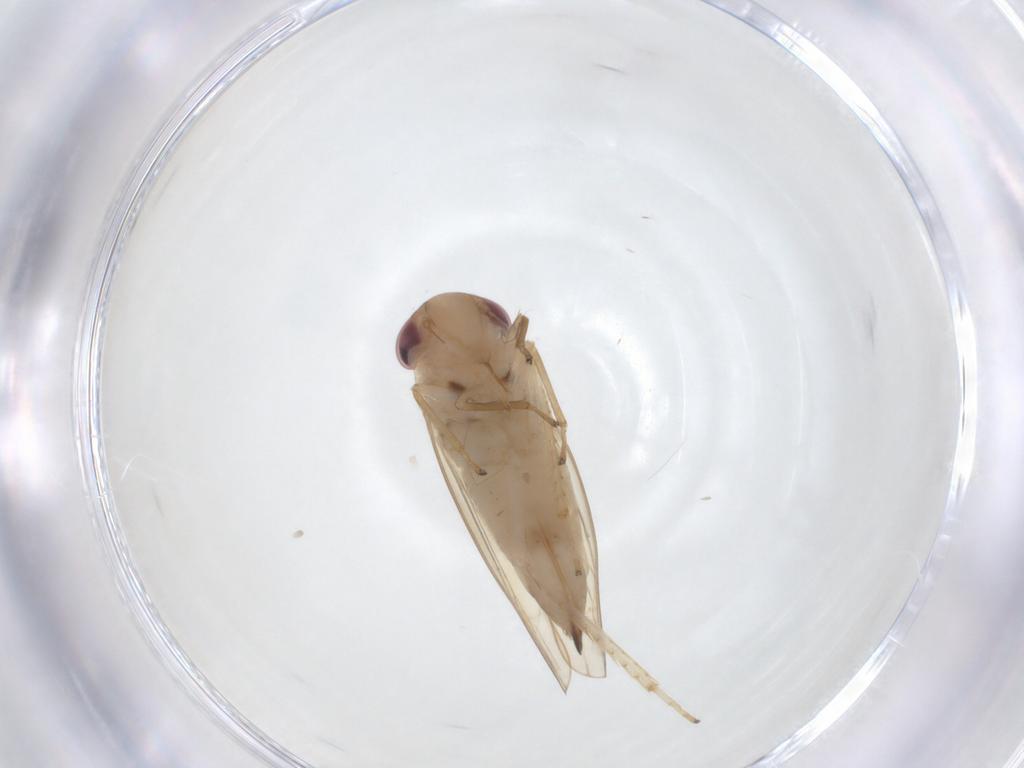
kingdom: Animalia
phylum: Arthropoda
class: Insecta
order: Hemiptera
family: Cicadellidae
